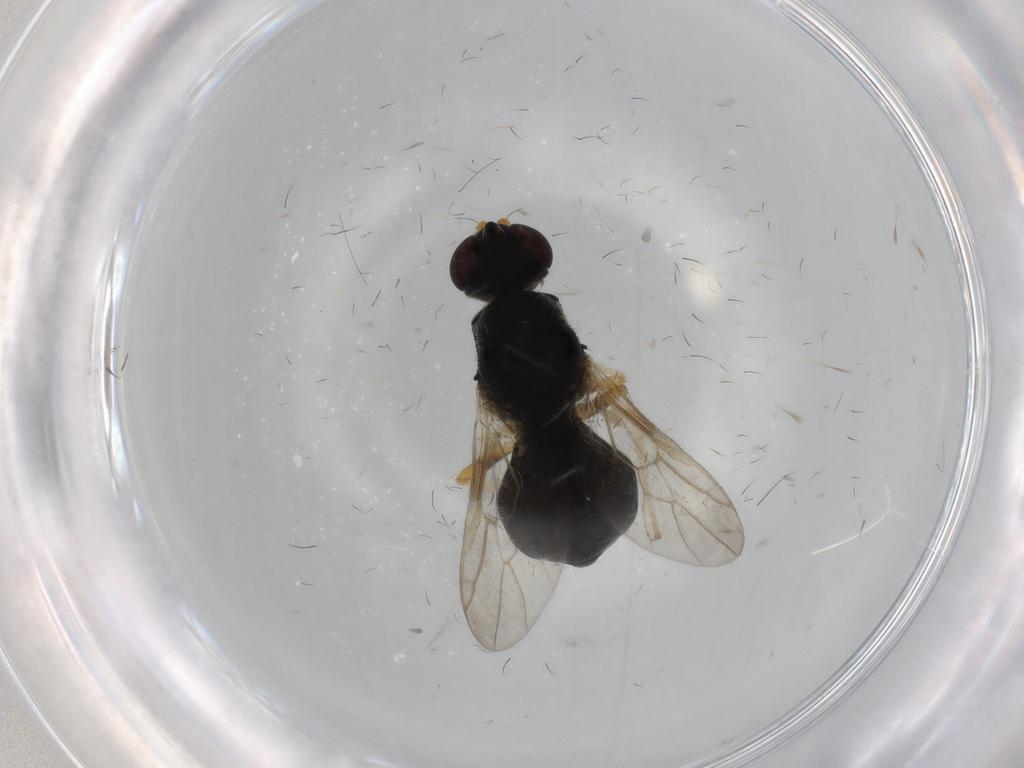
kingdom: Animalia
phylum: Arthropoda
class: Insecta
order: Diptera
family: Stratiomyidae
